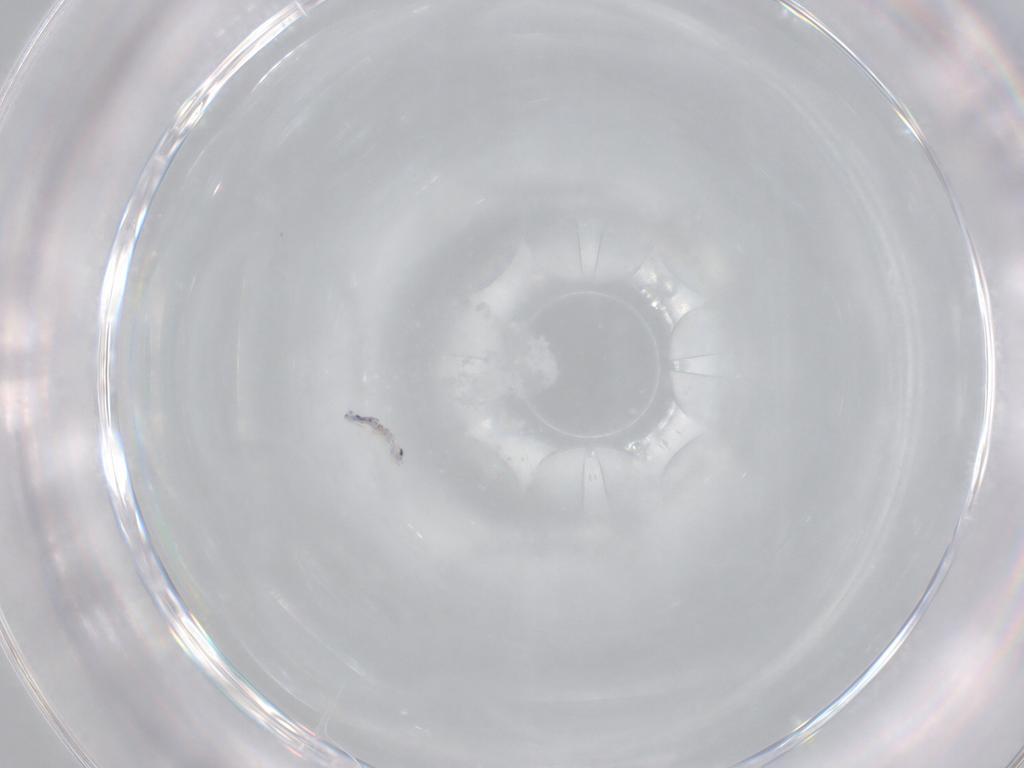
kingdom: Animalia
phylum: Arthropoda
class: Collembola
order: Entomobryomorpha
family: Entomobryidae
